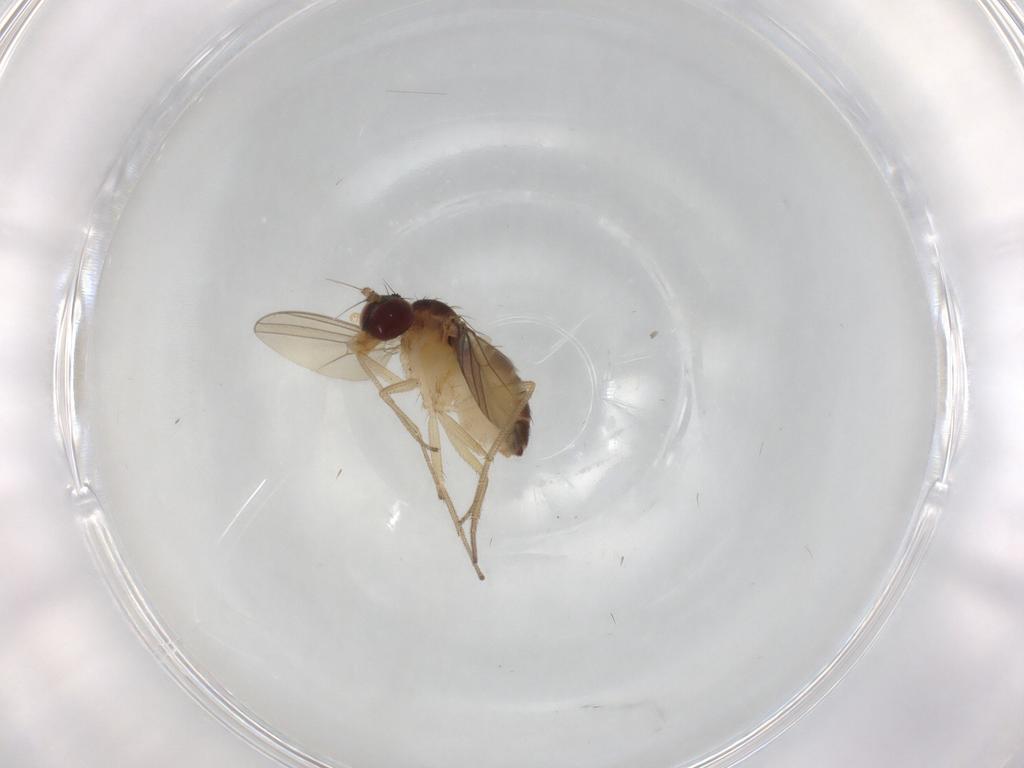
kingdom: Animalia
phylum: Arthropoda
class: Insecta
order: Diptera
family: Dolichopodidae
